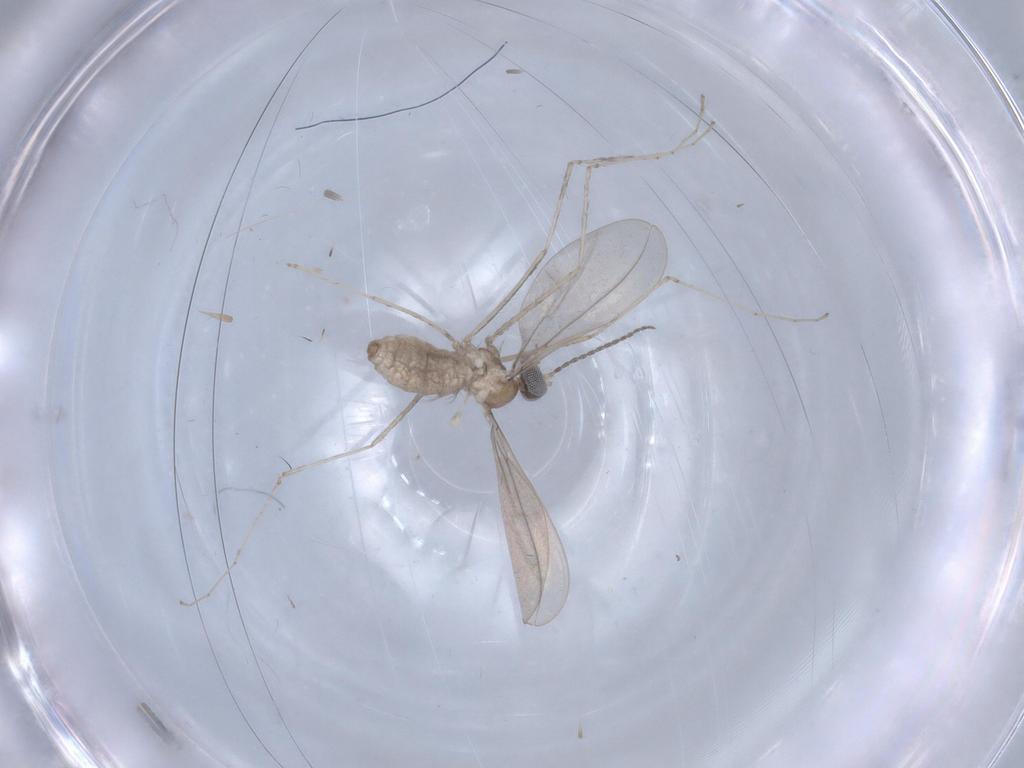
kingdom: Animalia
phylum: Arthropoda
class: Insecta
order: Diptera
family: Cecidomyiidae
